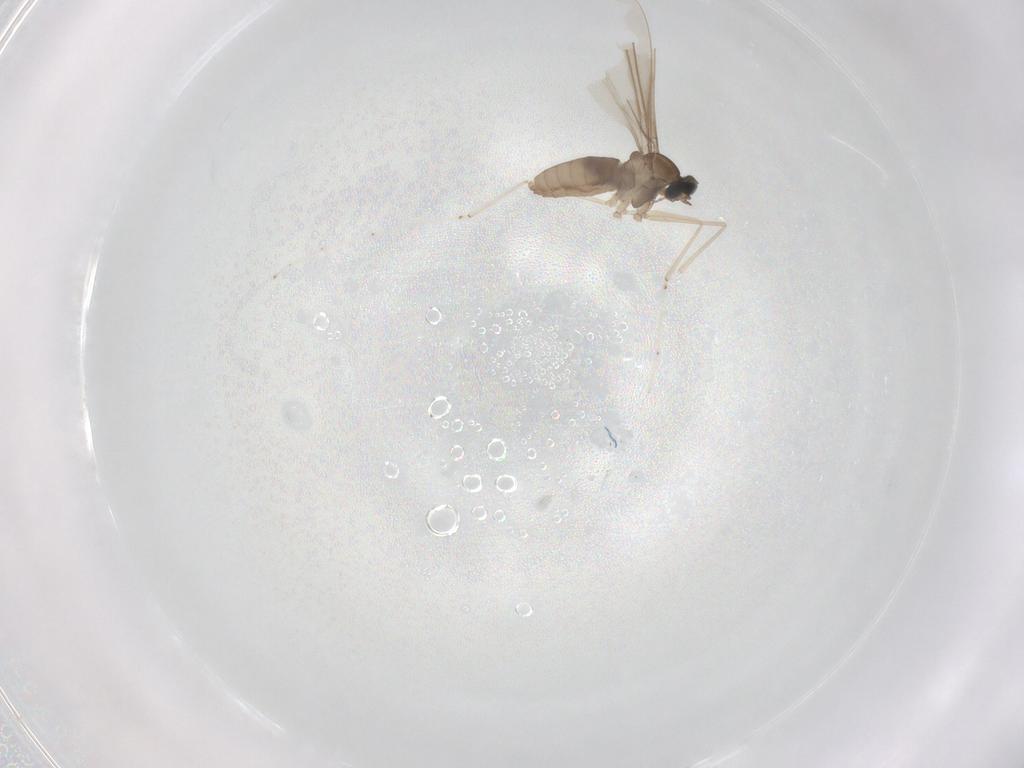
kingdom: Animalia
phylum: Arthropoda
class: Insecta
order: Diptera
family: Cecidomyiidae
